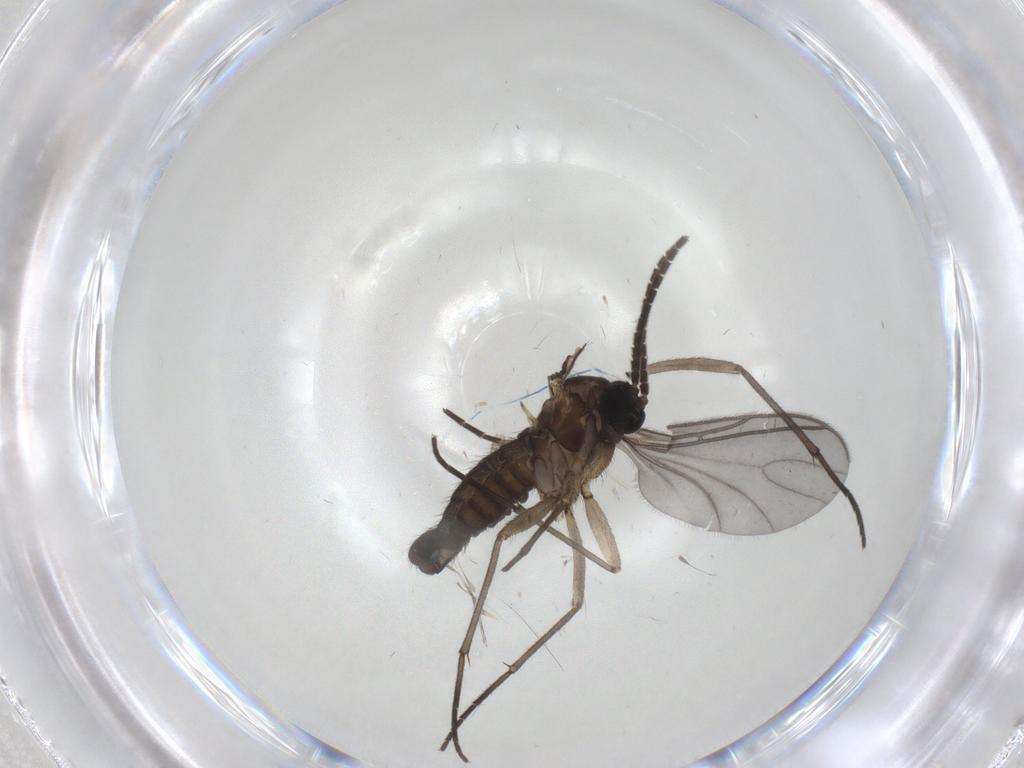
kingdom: Animalia
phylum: Arthropoda
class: Insecta
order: Diptera
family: Sciaridae
